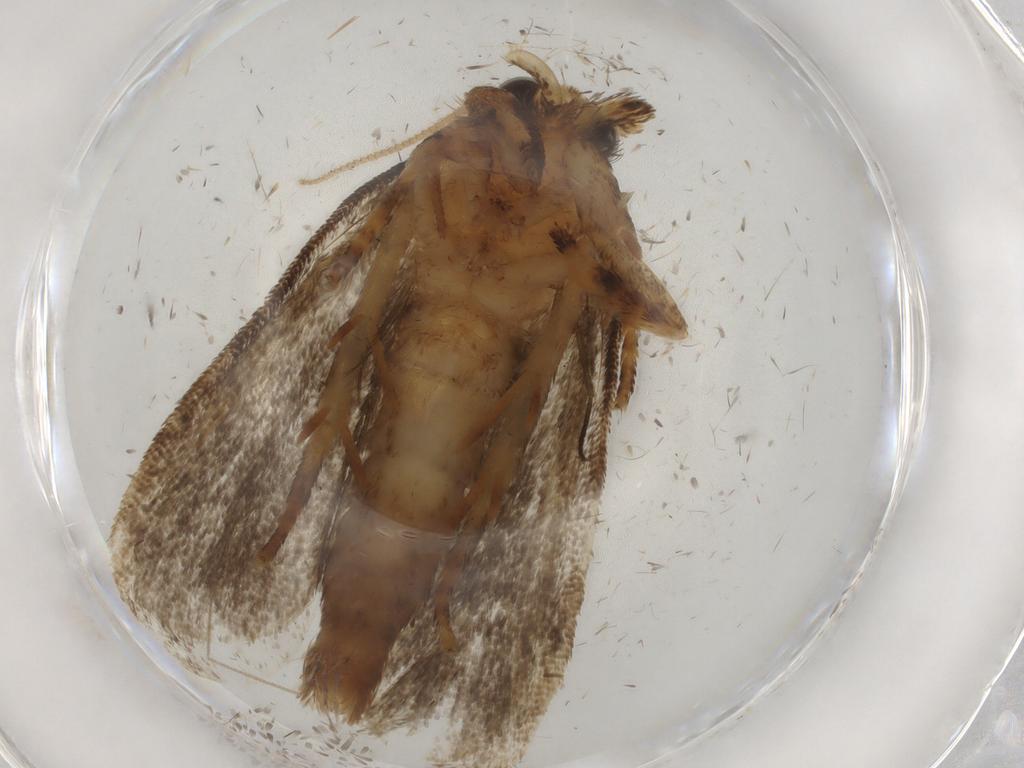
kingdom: Animalia
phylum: Arthropoda
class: Insecta
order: Lepidoptera
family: Tineidae
